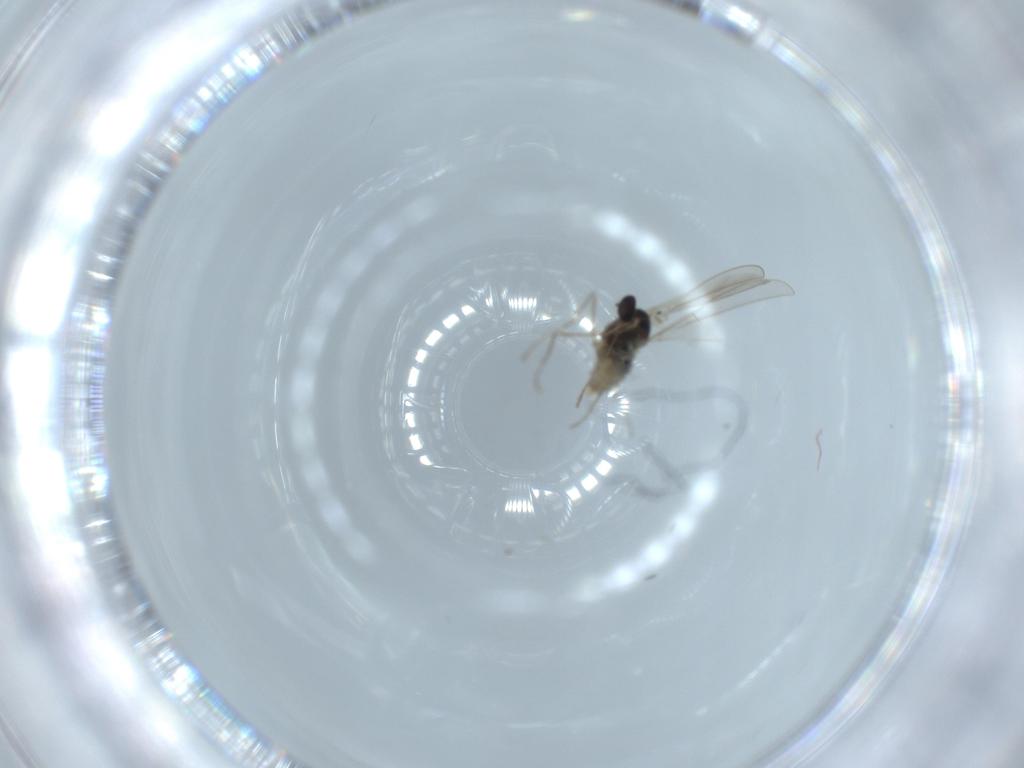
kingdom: Animalia
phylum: Arthropoda
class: Insecta
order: Diptera
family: Cecidomyiidae
